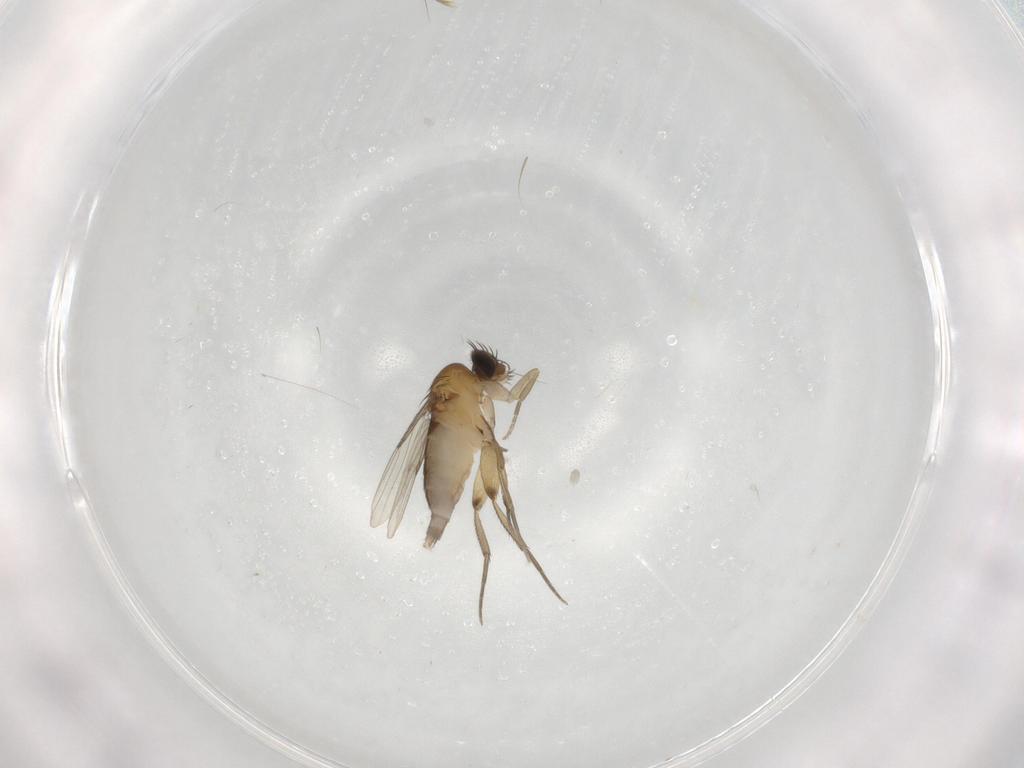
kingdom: Animalia
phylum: Arthropoda
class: Insecta
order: Diptera
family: Phoridae
